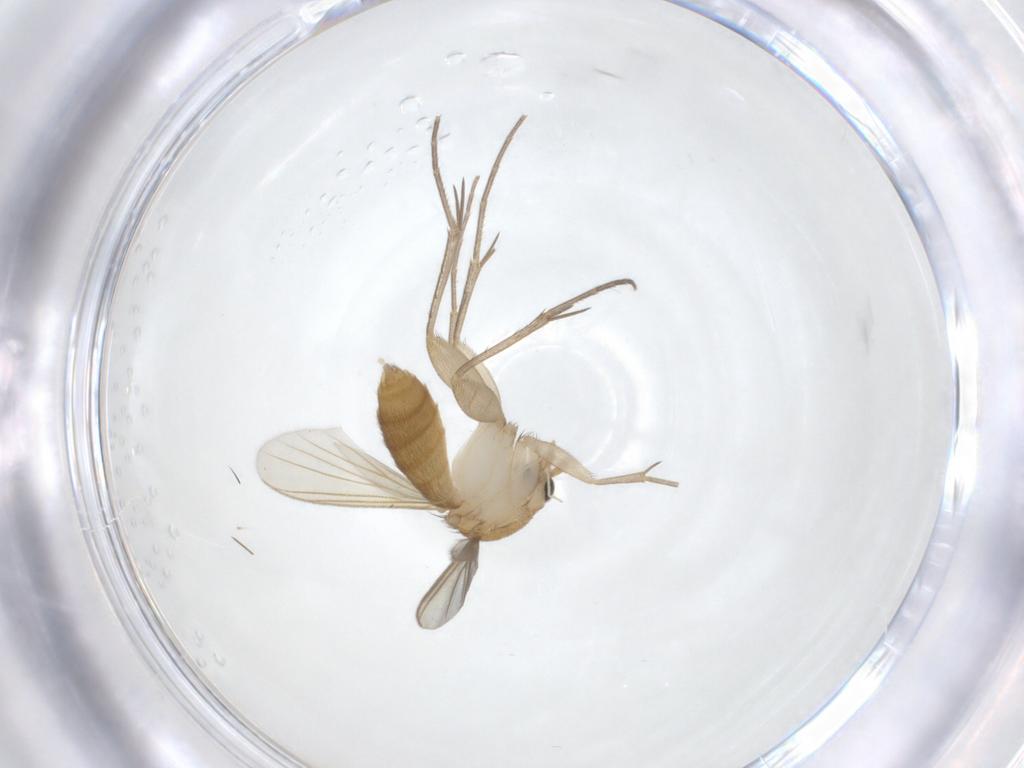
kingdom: Animalia
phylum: Arthropoda
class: Insecta
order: Diptera
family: Mycetophilidae
